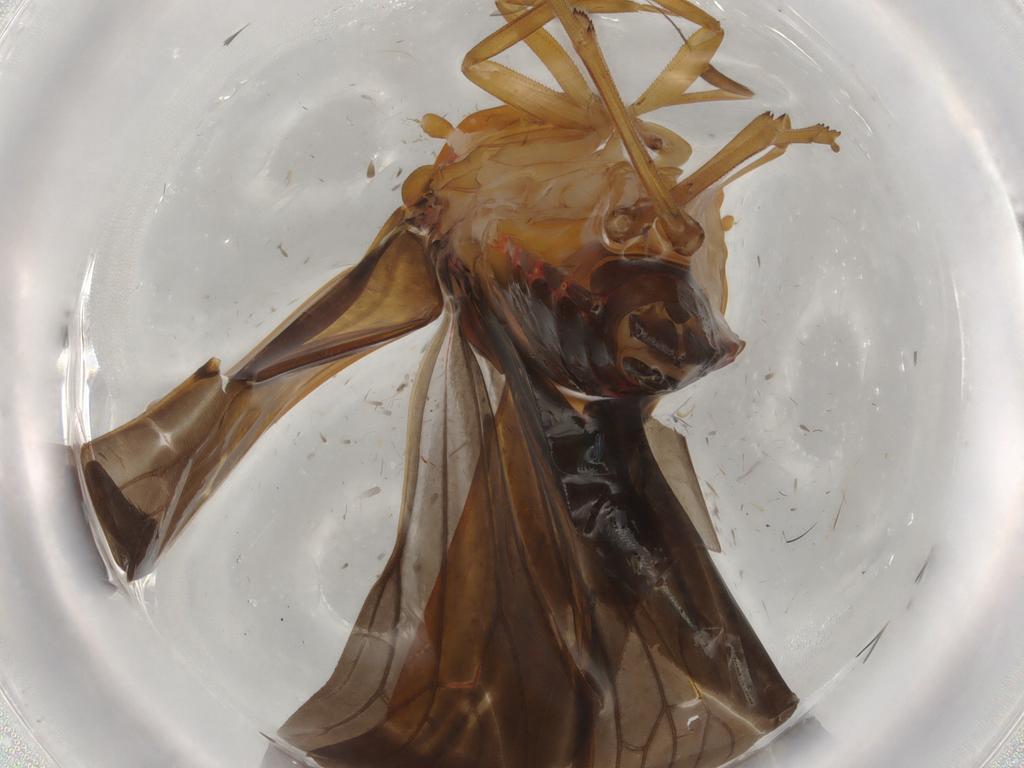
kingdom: Animalia
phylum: Arthropoda
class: Insecta
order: Hemiptera
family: Achilidae
